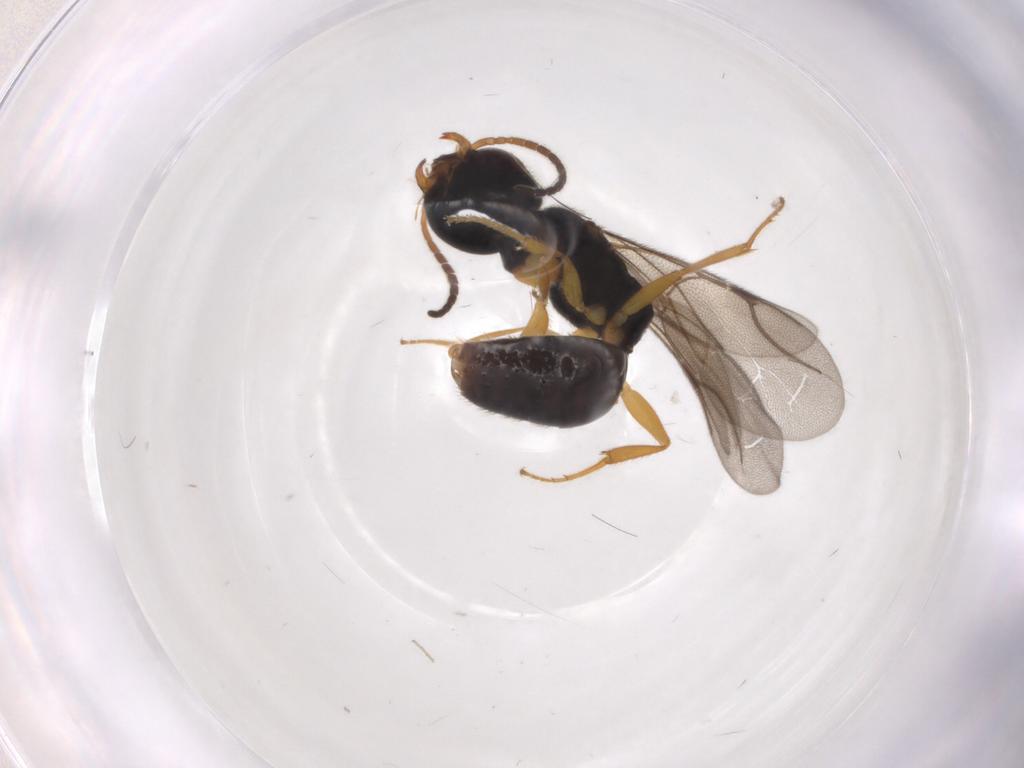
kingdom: Animalia
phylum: Arthropoda
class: Insecta
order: Hymenoptera
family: Bethylidae
